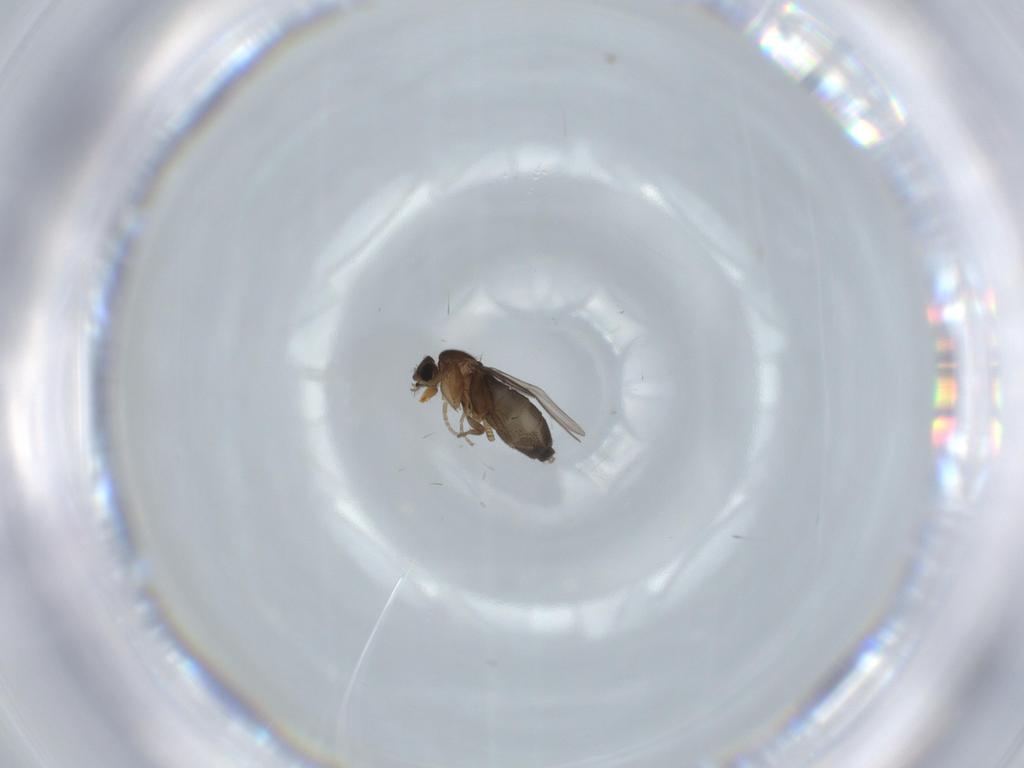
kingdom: Animalia
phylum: Arthropoda
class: Insecta
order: Diptera
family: Phoridae
